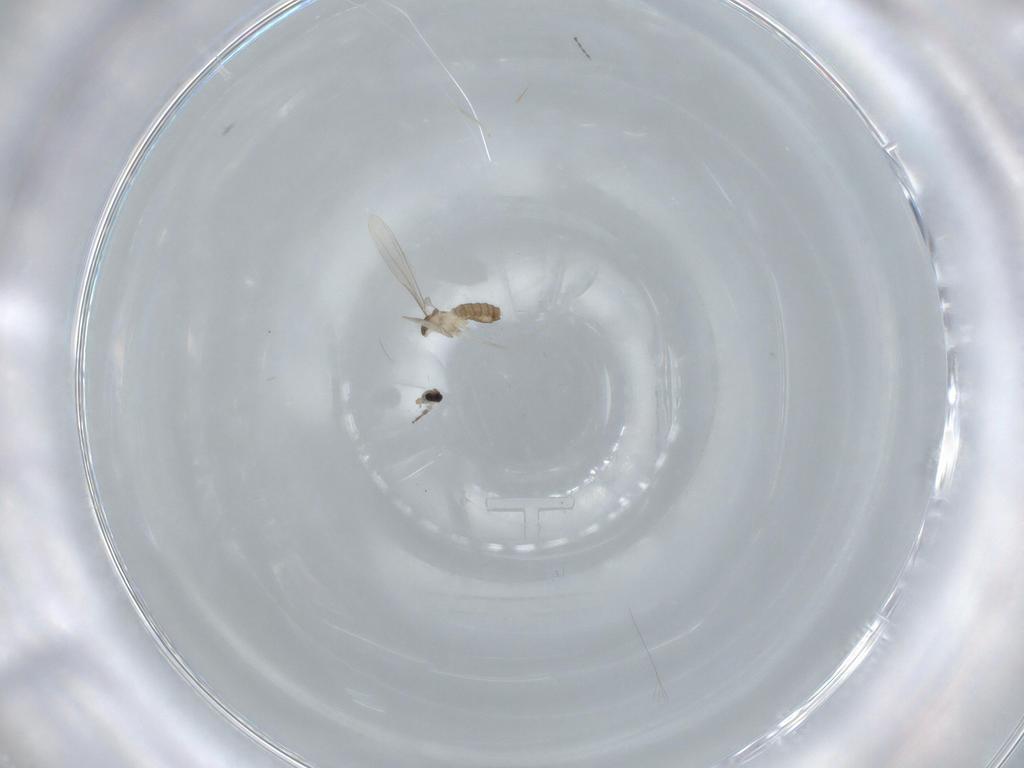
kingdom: Animalia
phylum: Arthropoda
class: Insecta
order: Diptera
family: Cecidomyiidae
